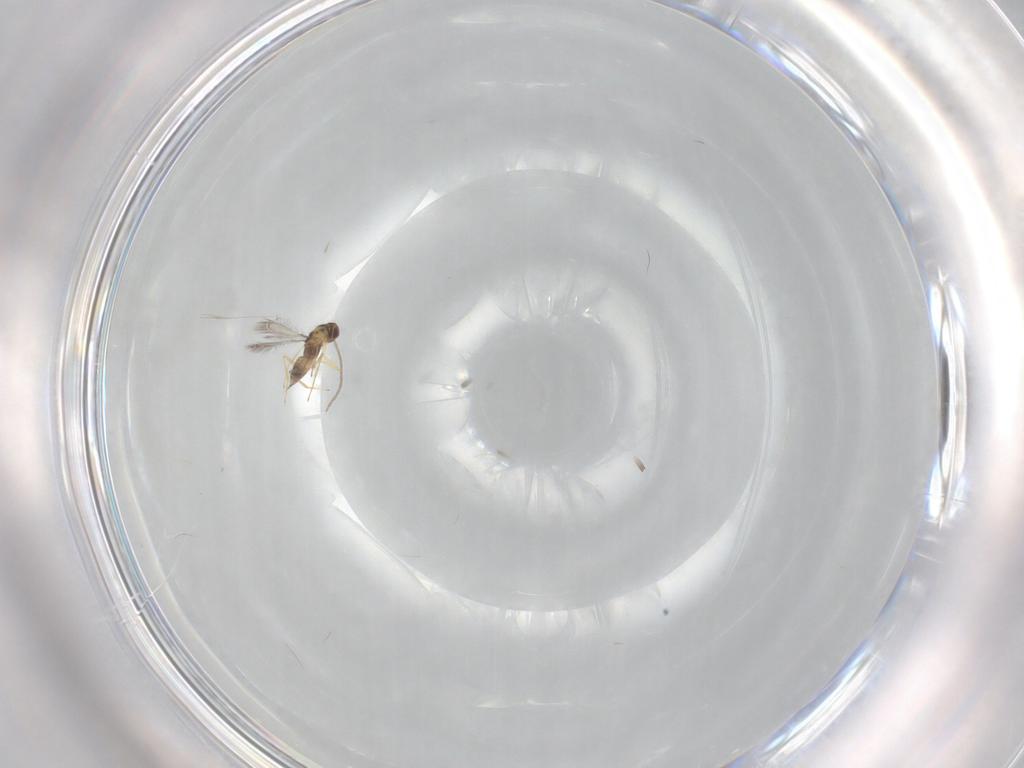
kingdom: Animalia
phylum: Arthropoda
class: Insecta
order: Hymenoptera
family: Mymaridae
